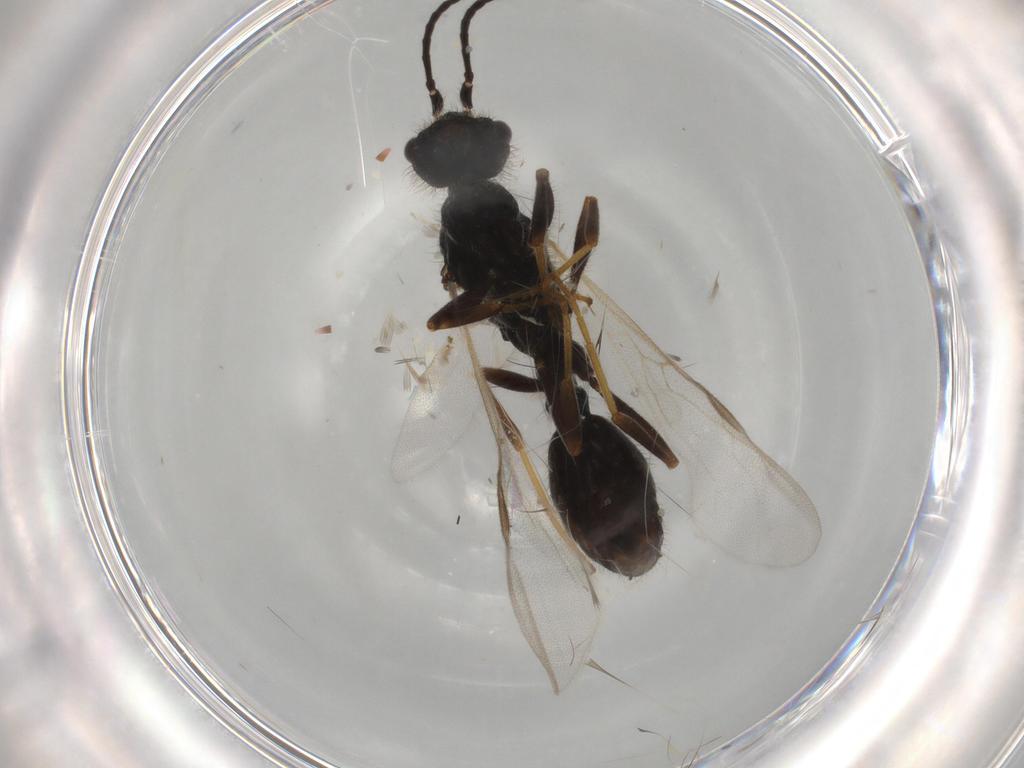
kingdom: Animalia
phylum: Arthropoda
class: Insecta
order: Hymenoptera
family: Formicidae
